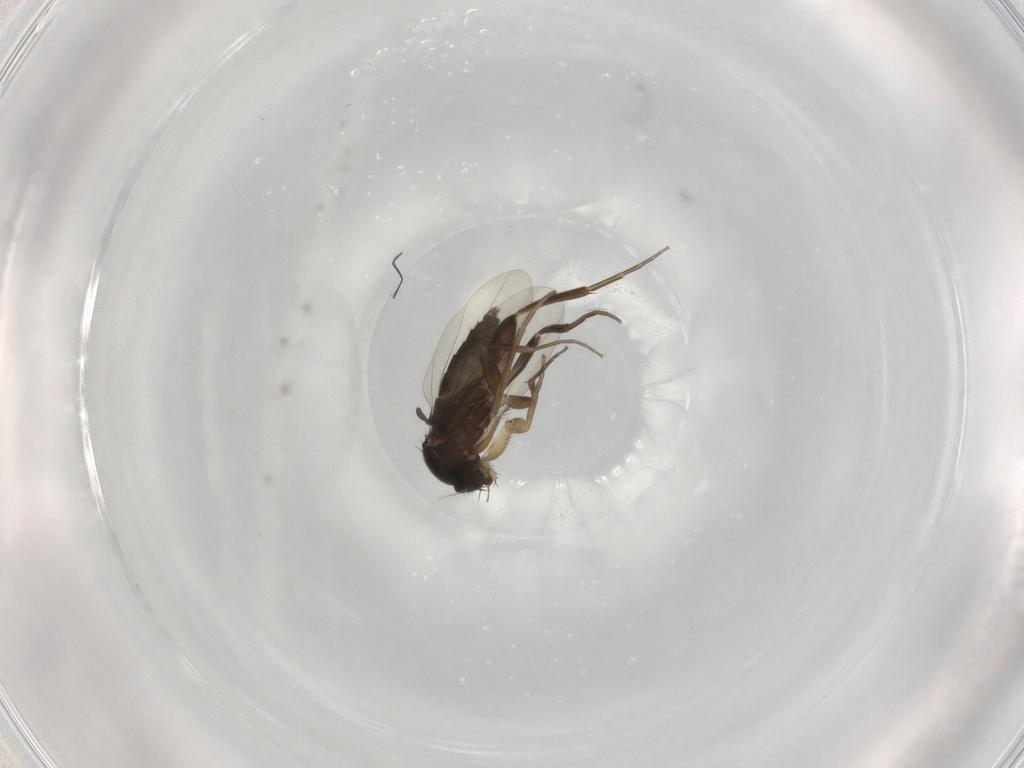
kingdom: Animalia
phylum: Arthropoda
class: Insecta
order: Diptera
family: Phoridae
